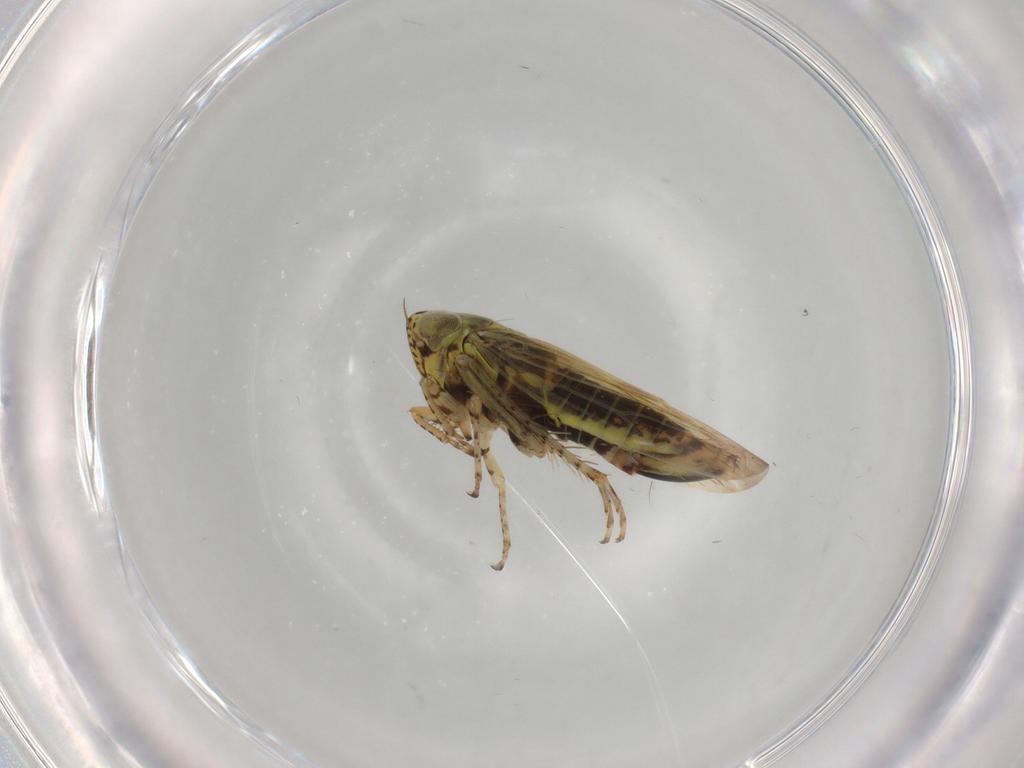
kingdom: Animalia
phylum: Arthropoda
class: Insecta
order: Hemiptera
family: Cicadellidae
